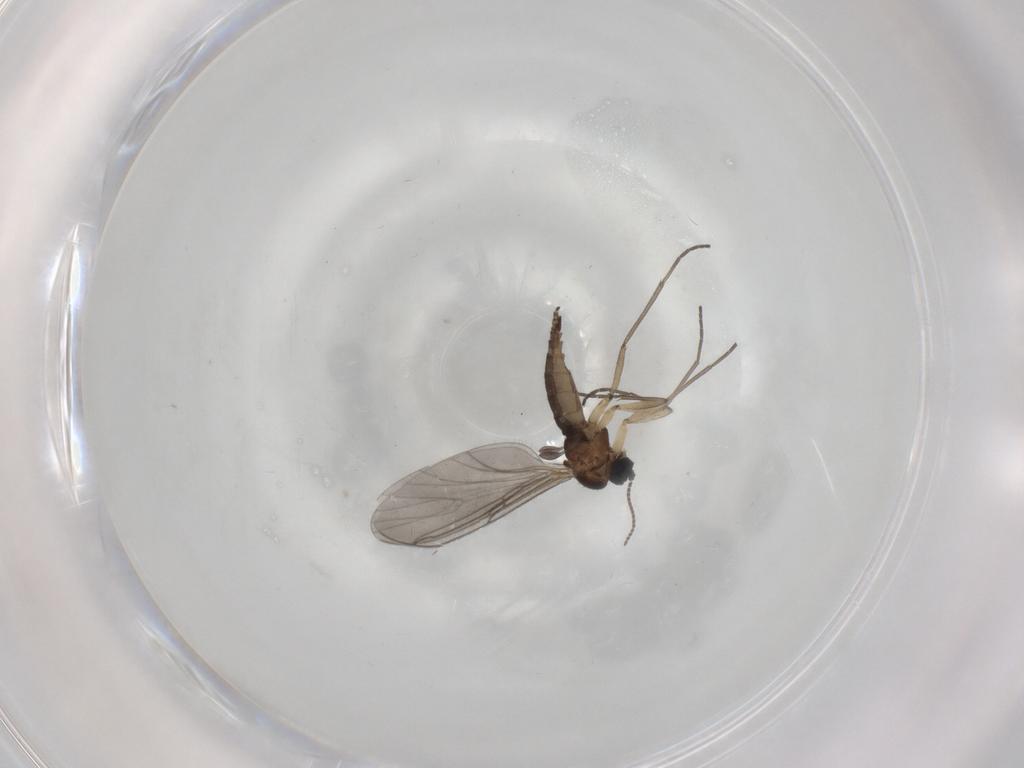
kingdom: Animalia
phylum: Arthropoda
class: Insecta
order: Diptera
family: Sciaridae
